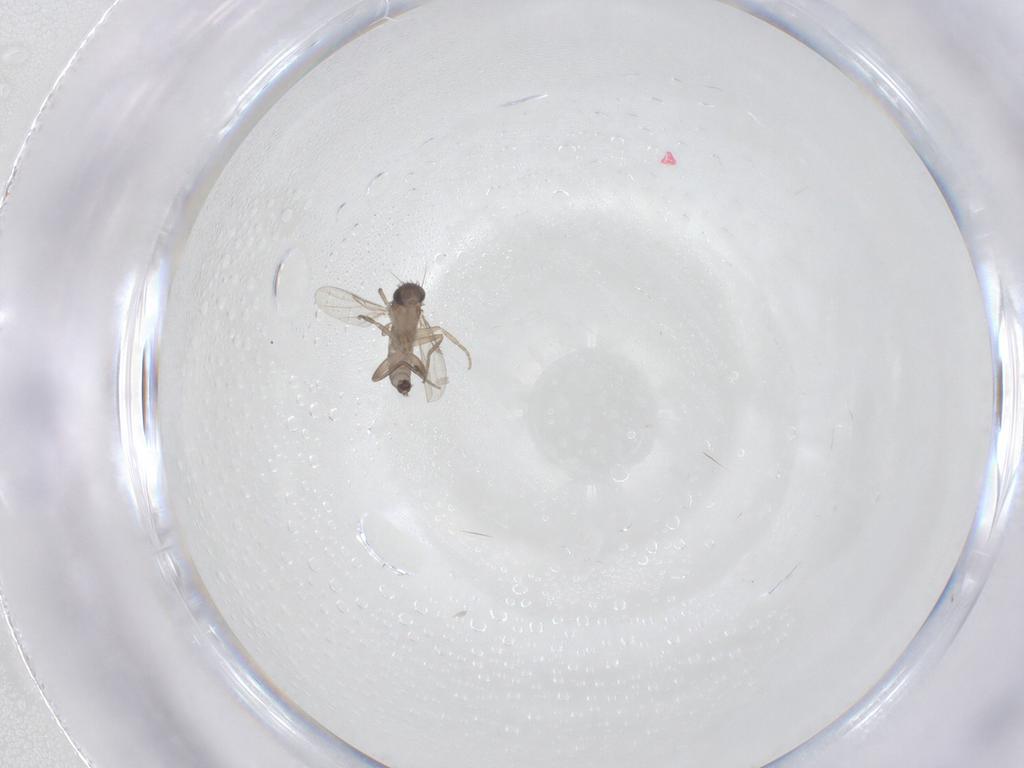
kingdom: Animalia
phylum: Arthropoda
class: Insecta
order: Diptera
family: Phoridae
